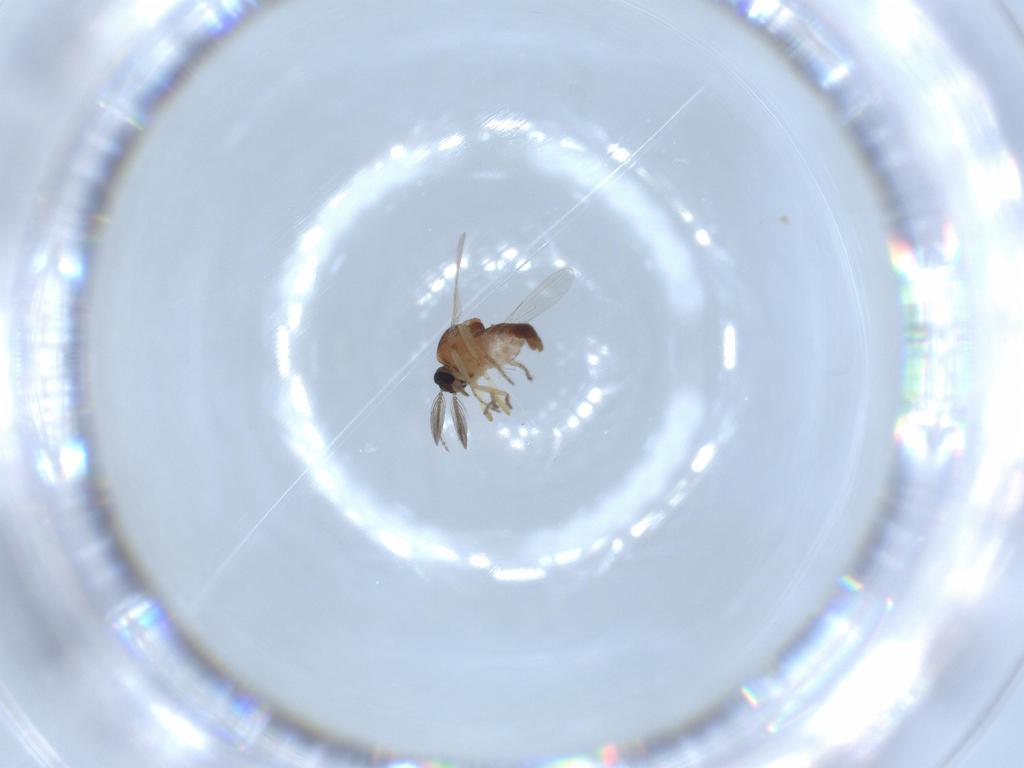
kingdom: Animalia
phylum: Arthropoda
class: Insecta
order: Diptera
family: Ceratopogonidae
